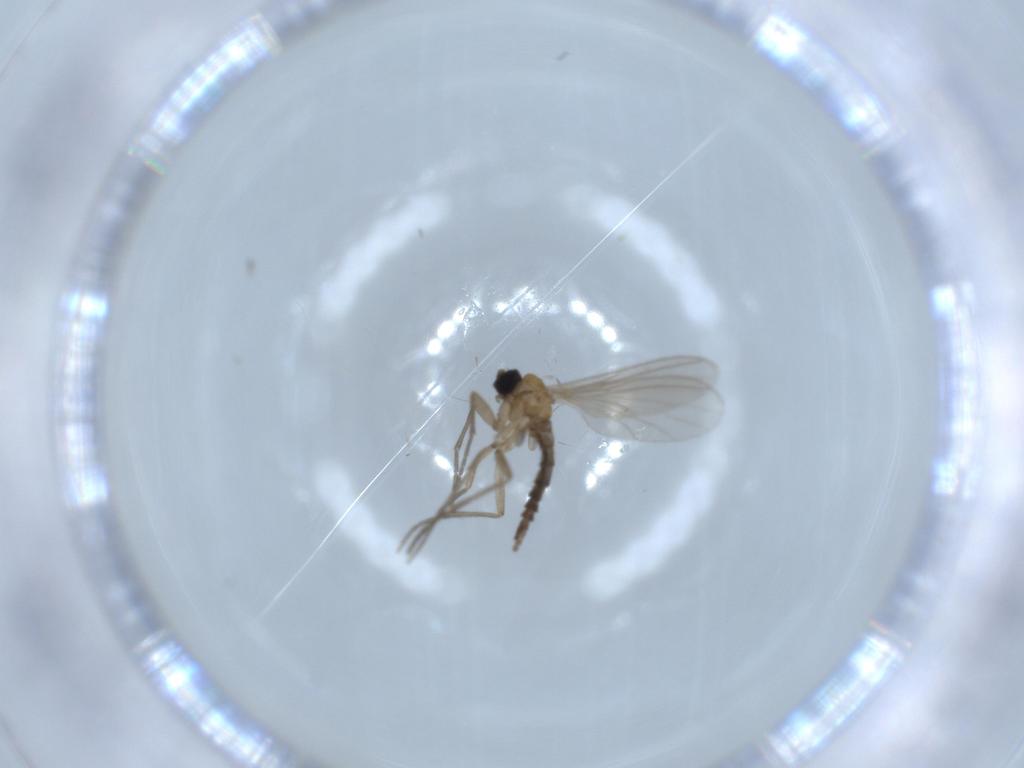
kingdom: Animalia
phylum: Arthropoda
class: Insecta
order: Diptera
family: Sciaridae
